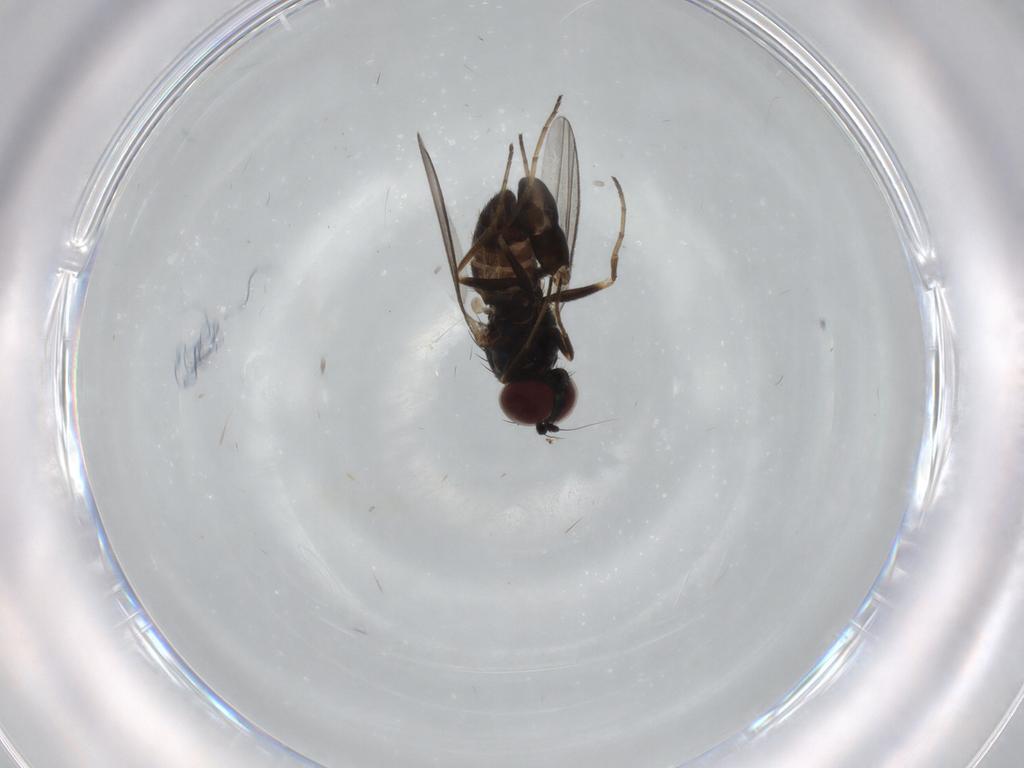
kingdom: Animalia
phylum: Arthropoda
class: Insecta
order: Diptera
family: Dolichopodidae
